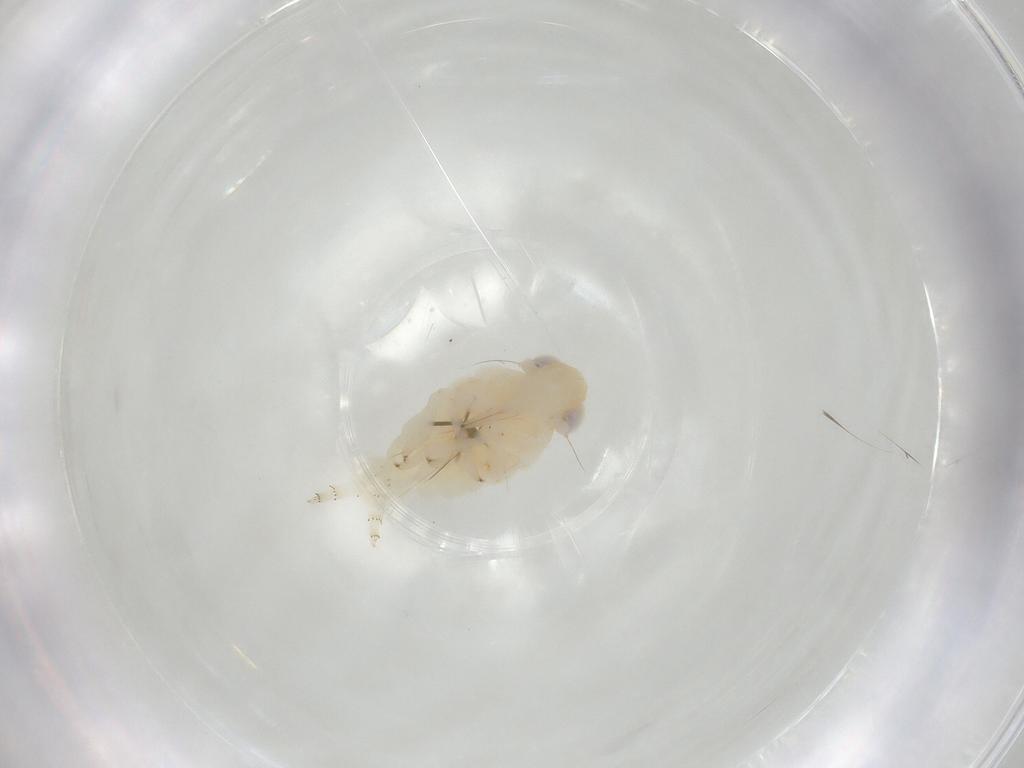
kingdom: Animalia
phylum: Arthropoda
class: Insecta
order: Hemiptera
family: Nogodinidae
